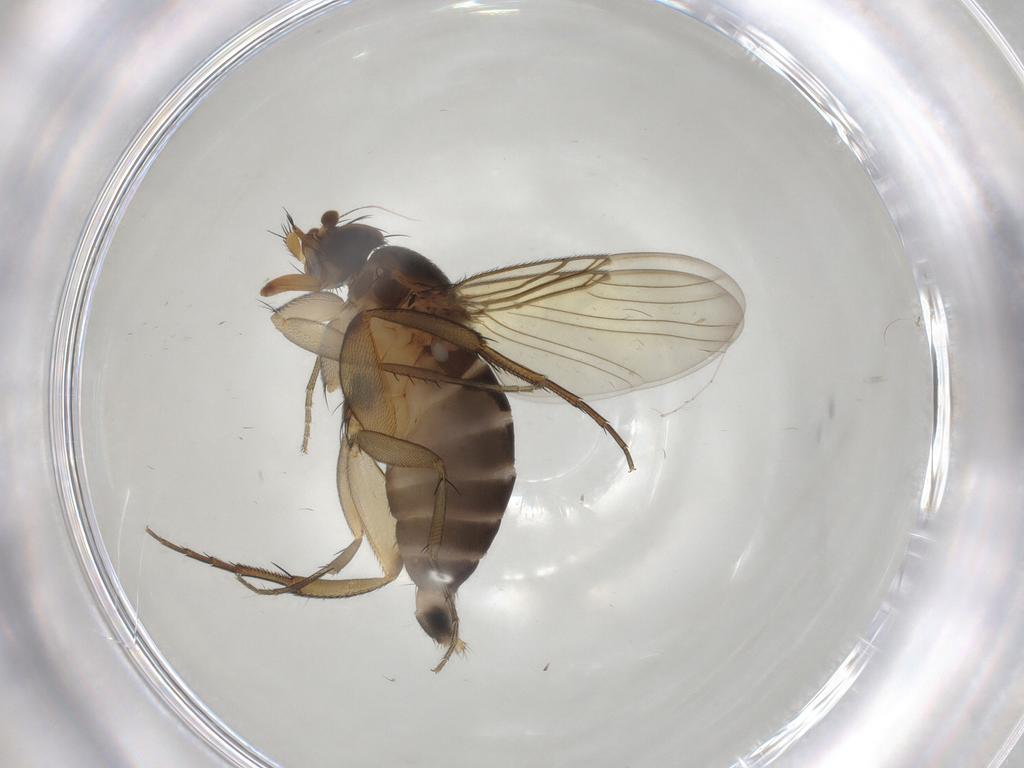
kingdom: Animalia
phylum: Arthropoda
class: Insecta
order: Diptera
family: Phoridae
